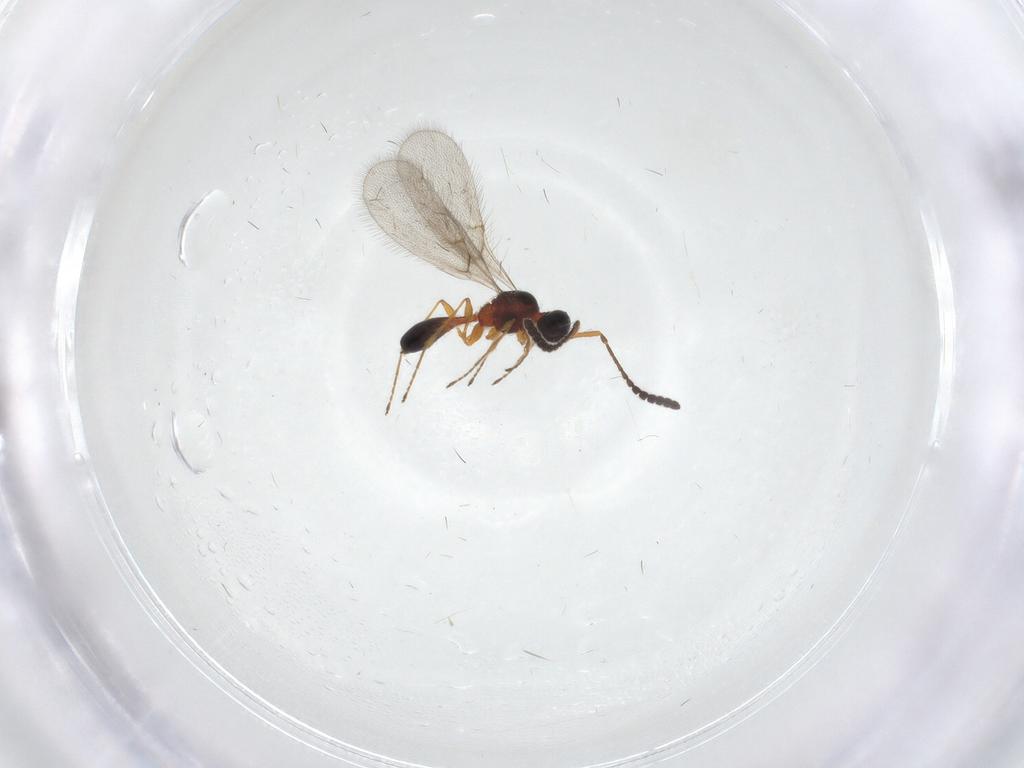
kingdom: Animalia
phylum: Arthropoda
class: Insecta
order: Hymenoptera
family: Diapriidae
